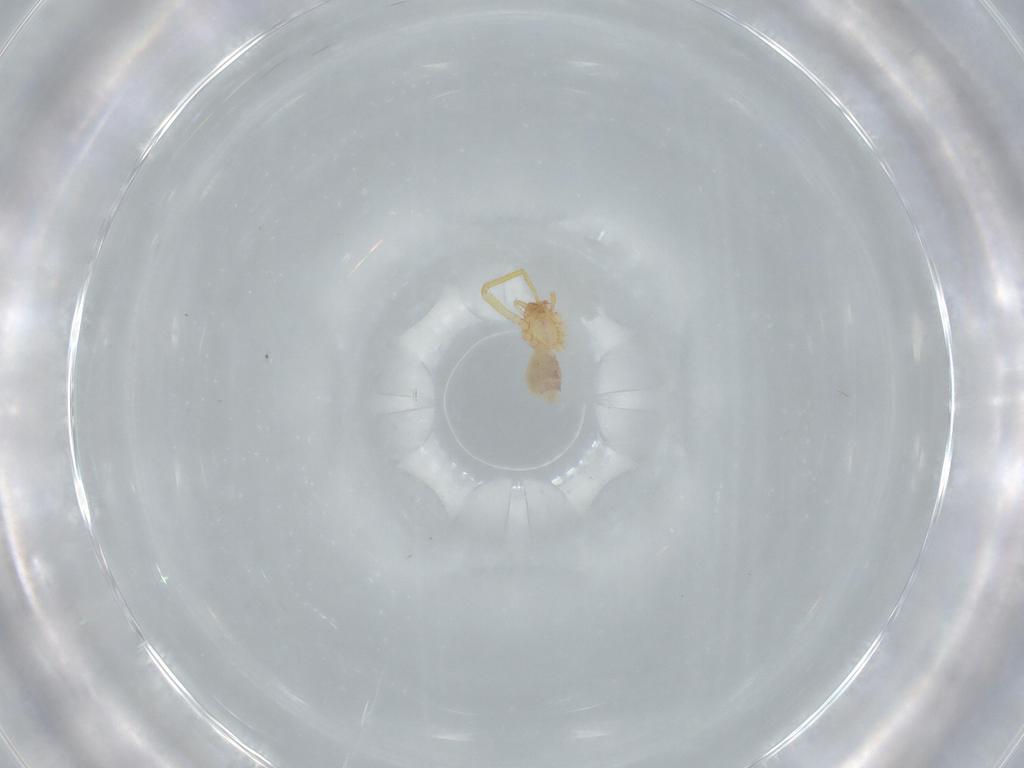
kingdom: Animalia
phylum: Arthropoda
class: Arachnida
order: Araneae
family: Ochyroceratidae
